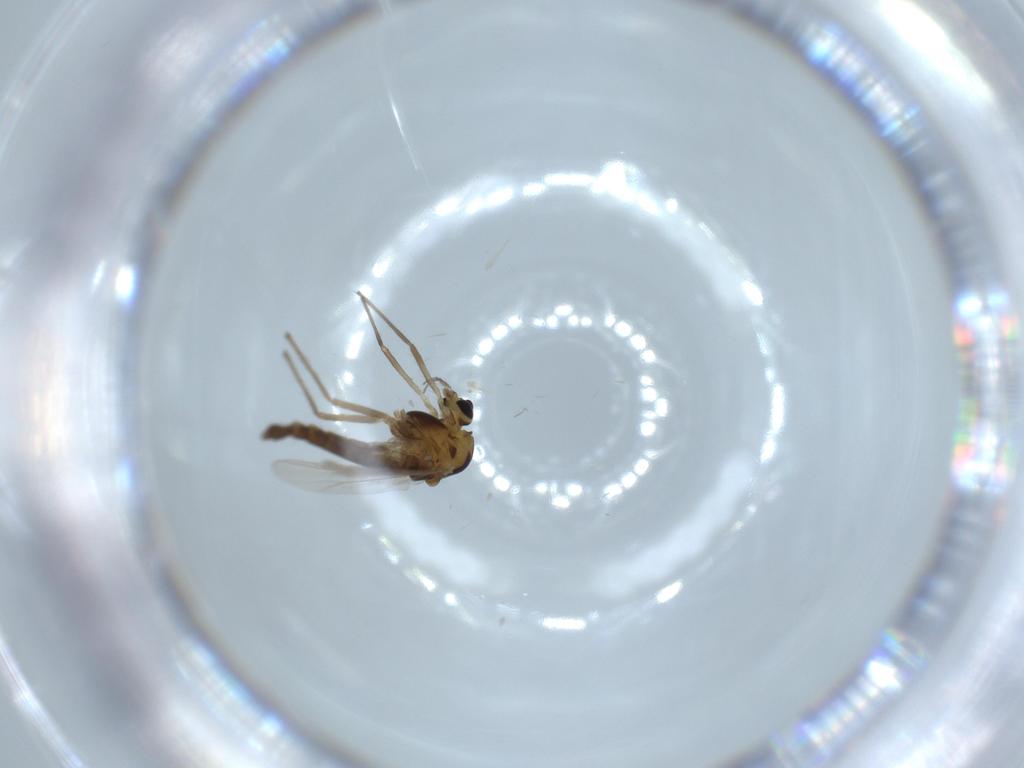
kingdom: Animalia
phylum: Arthropoda
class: Insecta
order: Diptera
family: Chironomidae
